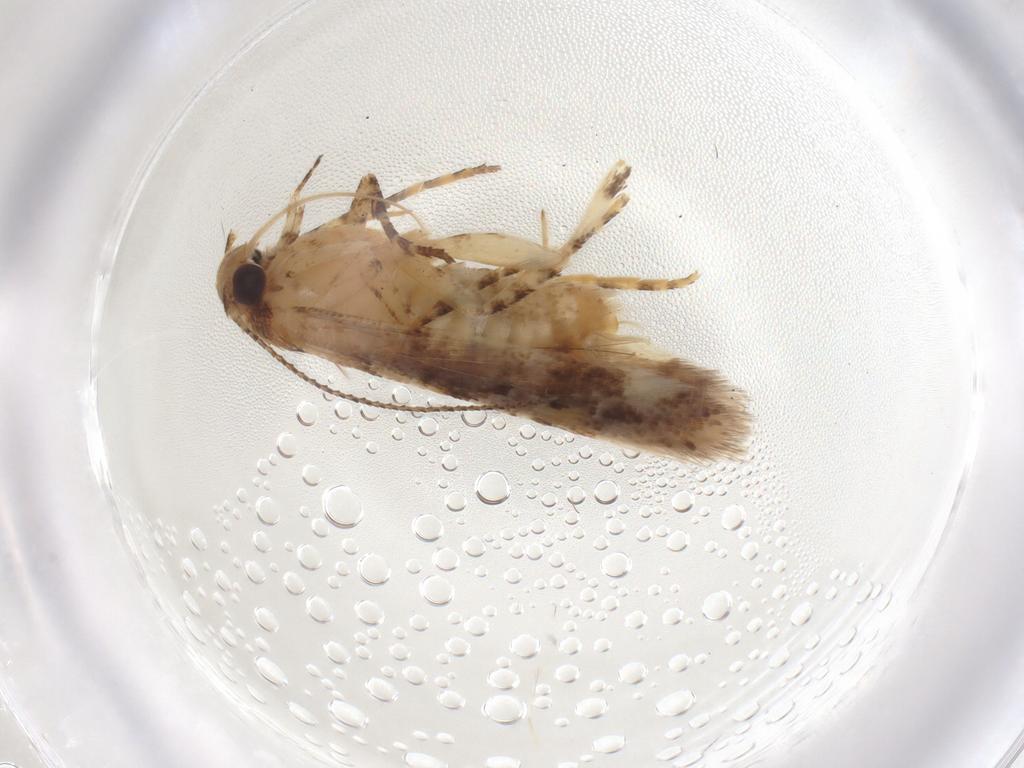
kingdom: Animalia
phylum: Arthropoda
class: Insecta
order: Lepidoptera
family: Gelechiidae
